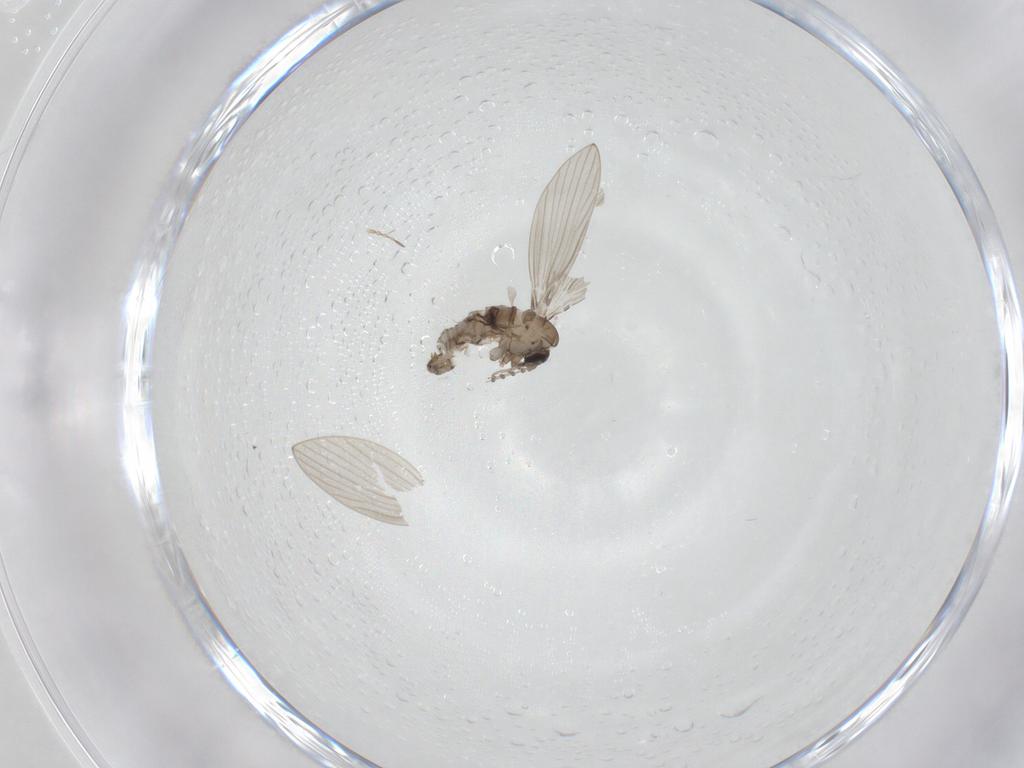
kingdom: Animalia
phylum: Arthropoda
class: Insecta
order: Diptera
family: Psychodidae
